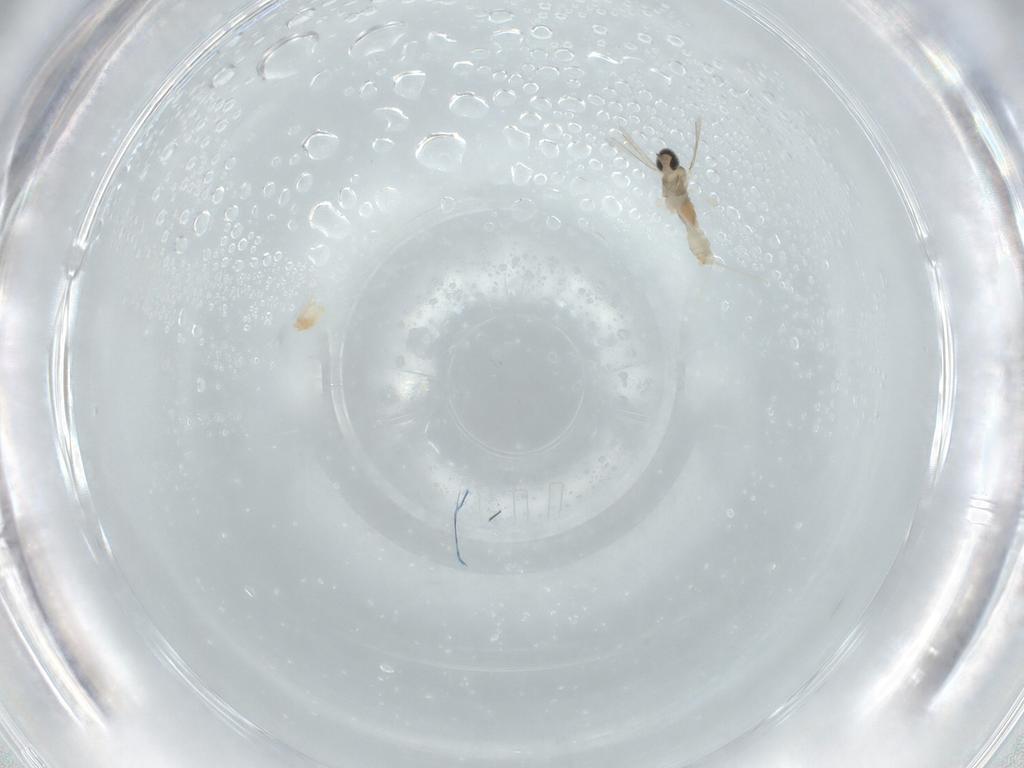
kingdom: Animalia
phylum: Arthropoda
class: Insecta
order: Diptera
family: Cecidomyiidae
